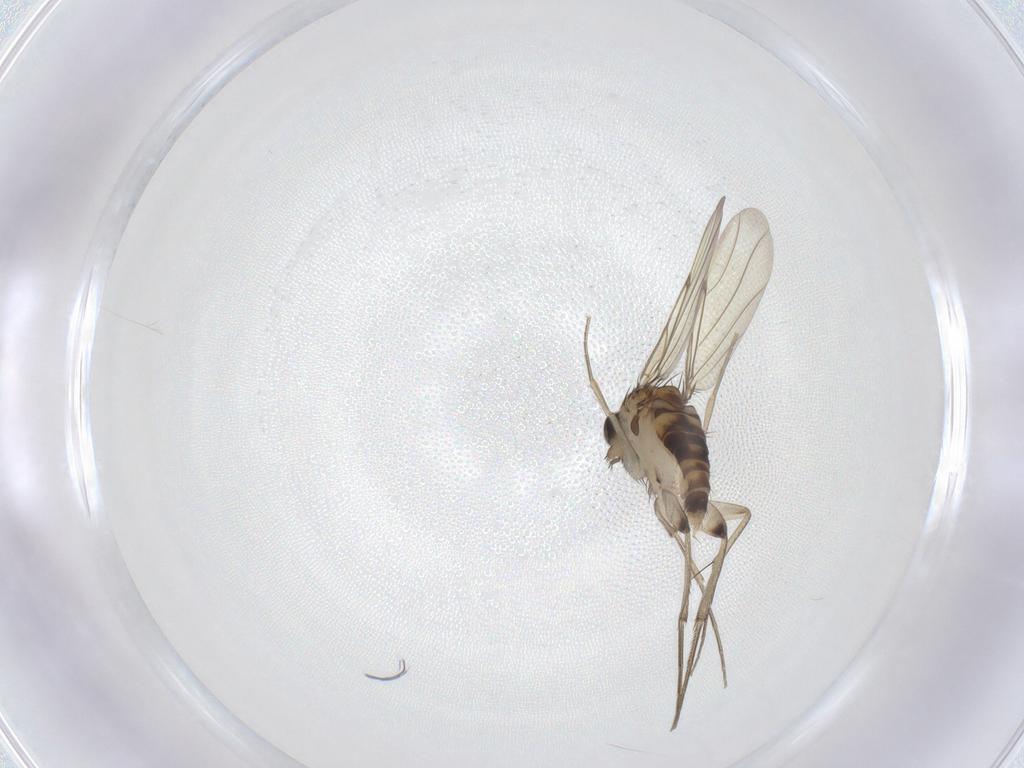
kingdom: Animalia
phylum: Arthropoda
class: Insecta
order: Diptera
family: Phoridae
